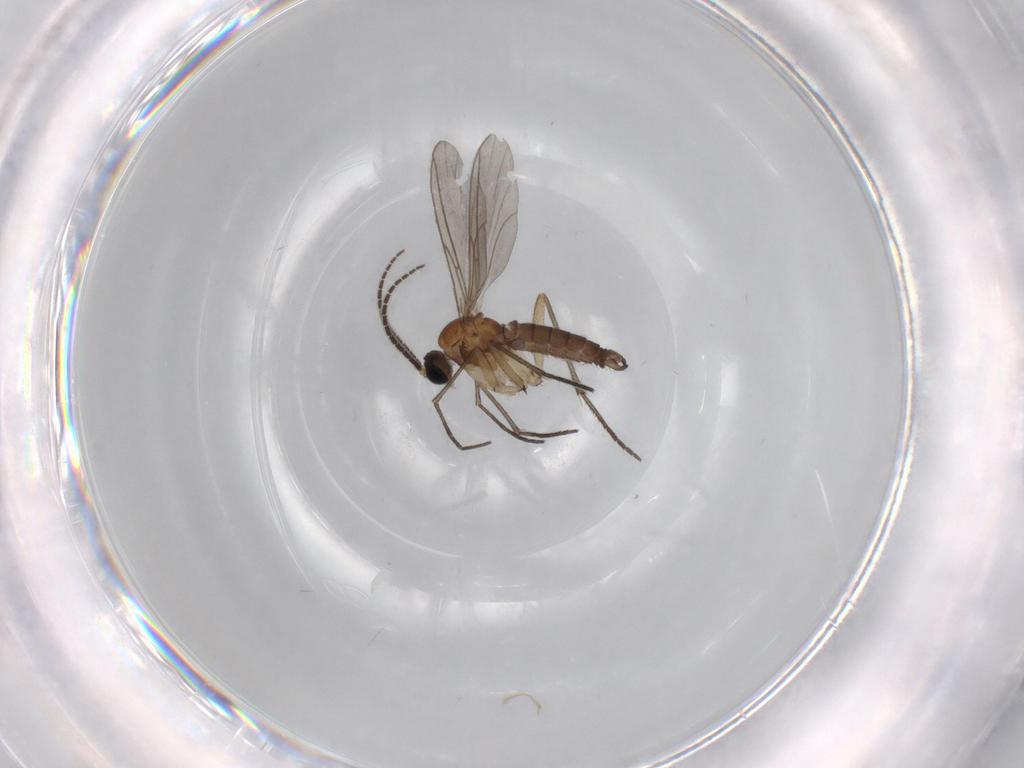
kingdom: Animalia
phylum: Arthropoda
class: Insecta
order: Diptera
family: Sciaridae
